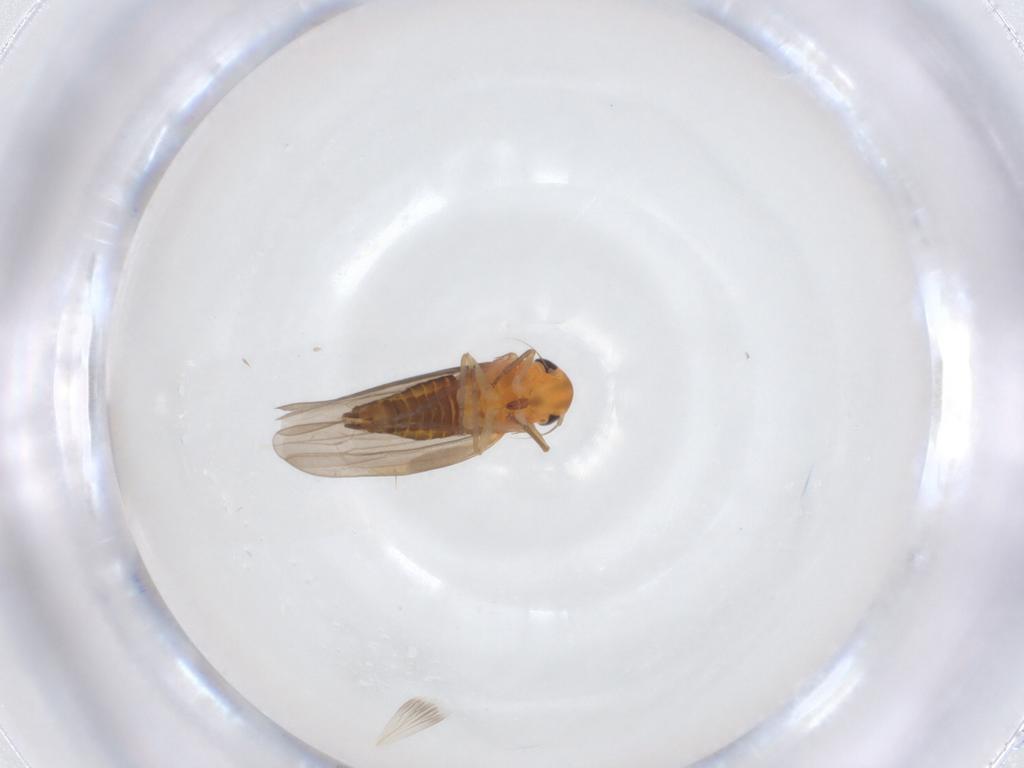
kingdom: Animalia
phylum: Arthropoda
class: Insecta
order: Hemiptera
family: Cicadellidae
